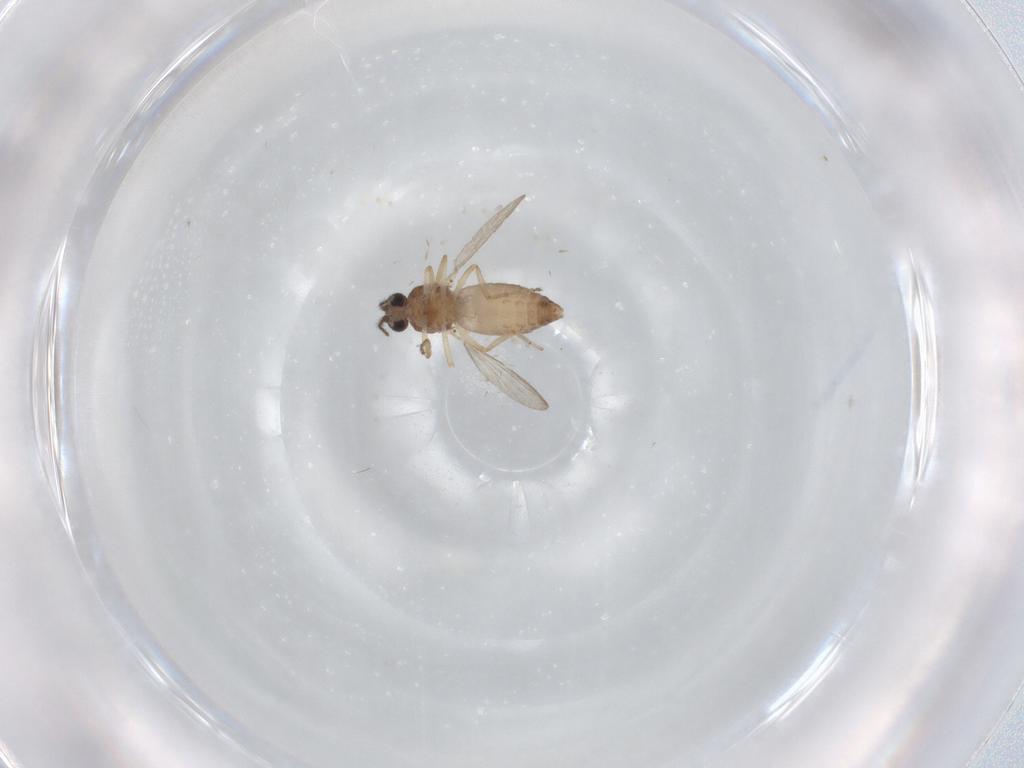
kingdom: Animalia
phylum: Arthropoda
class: Insecta
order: Diptera
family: Ceratopogonidae
